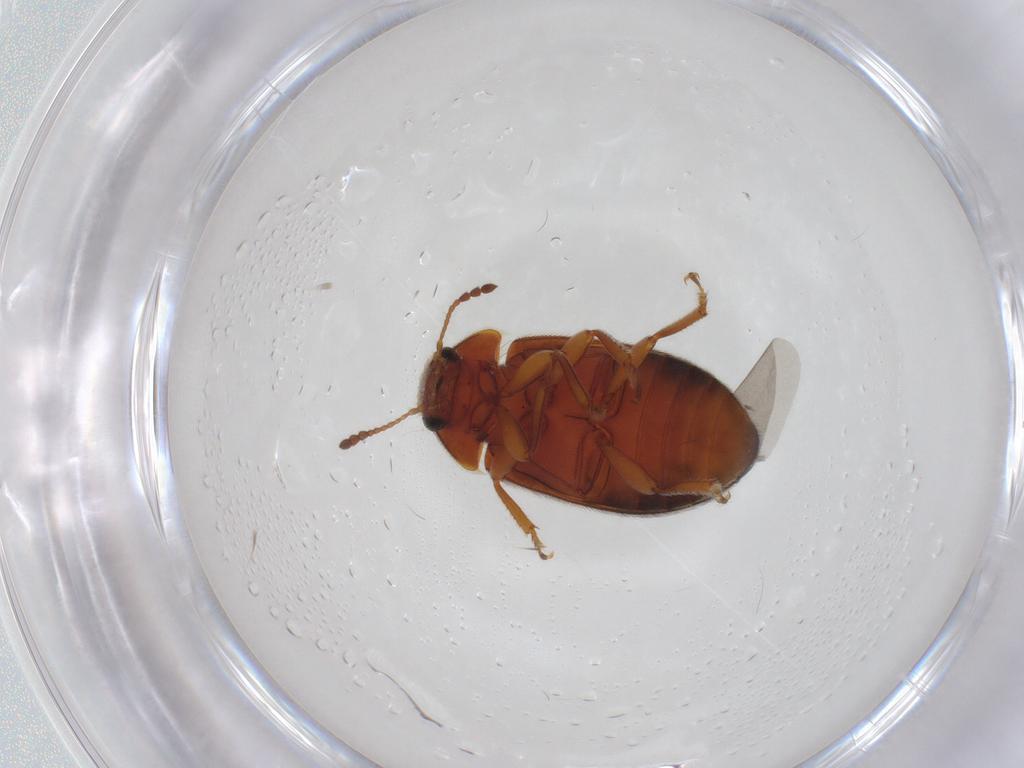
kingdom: Animalia
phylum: Arthropoda
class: Insecta
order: Coleoptera
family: Byturidae
